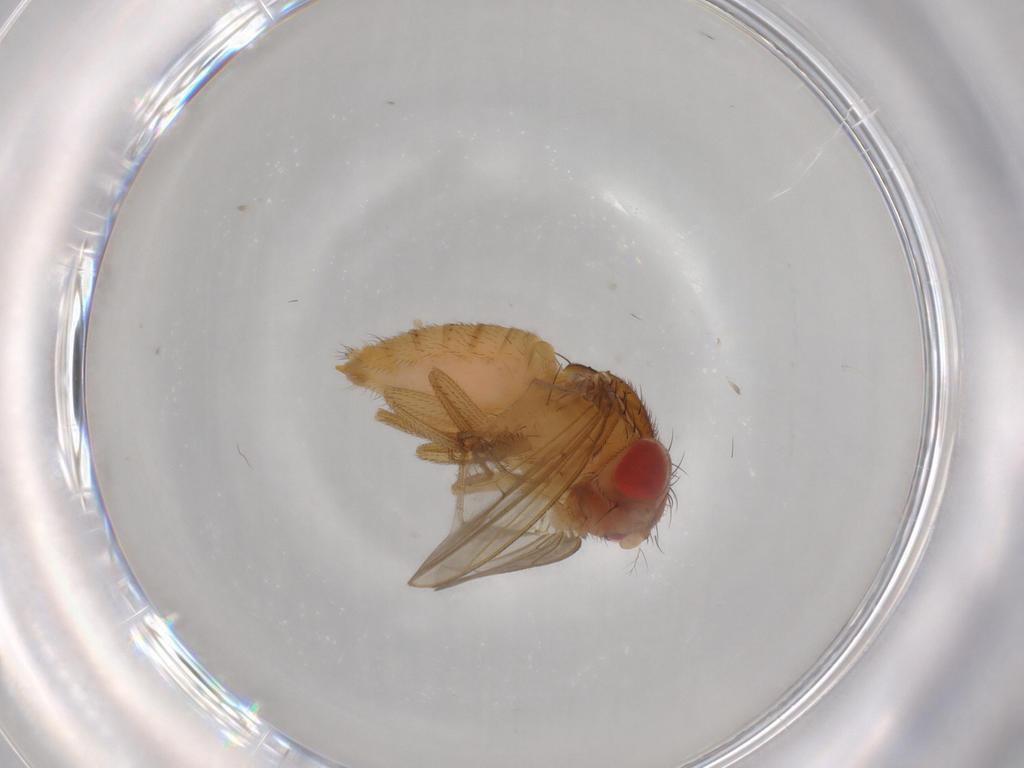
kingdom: Animalia
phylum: Arthropoda
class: Insecta
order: Diptera
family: Drosophilidae
